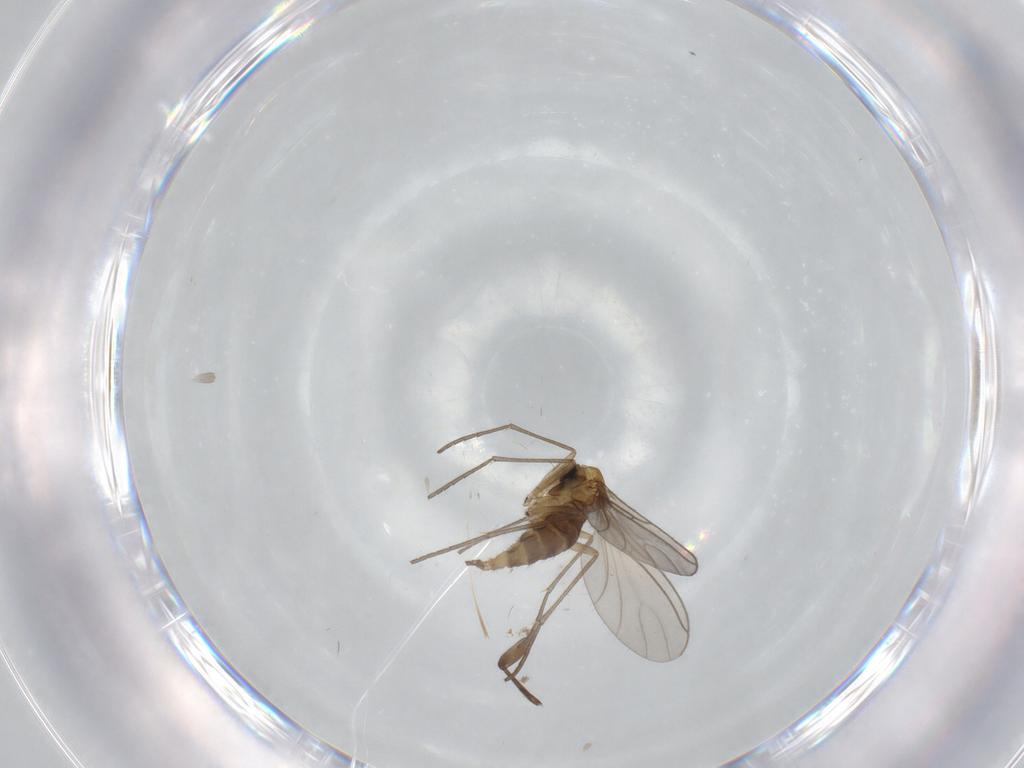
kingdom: Animalia
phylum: Arthropoda
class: Insecta
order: Diptera
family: Sciaridae
